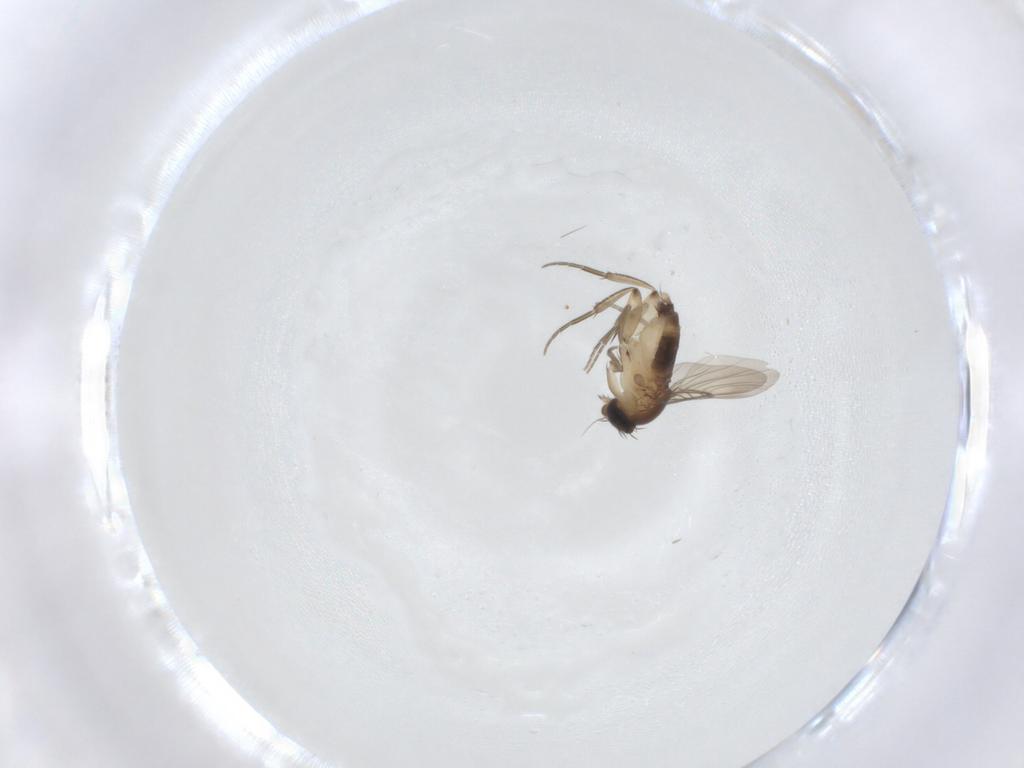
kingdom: Animalia
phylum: Arthropoda
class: Insecta
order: Diptera
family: Phoridae
